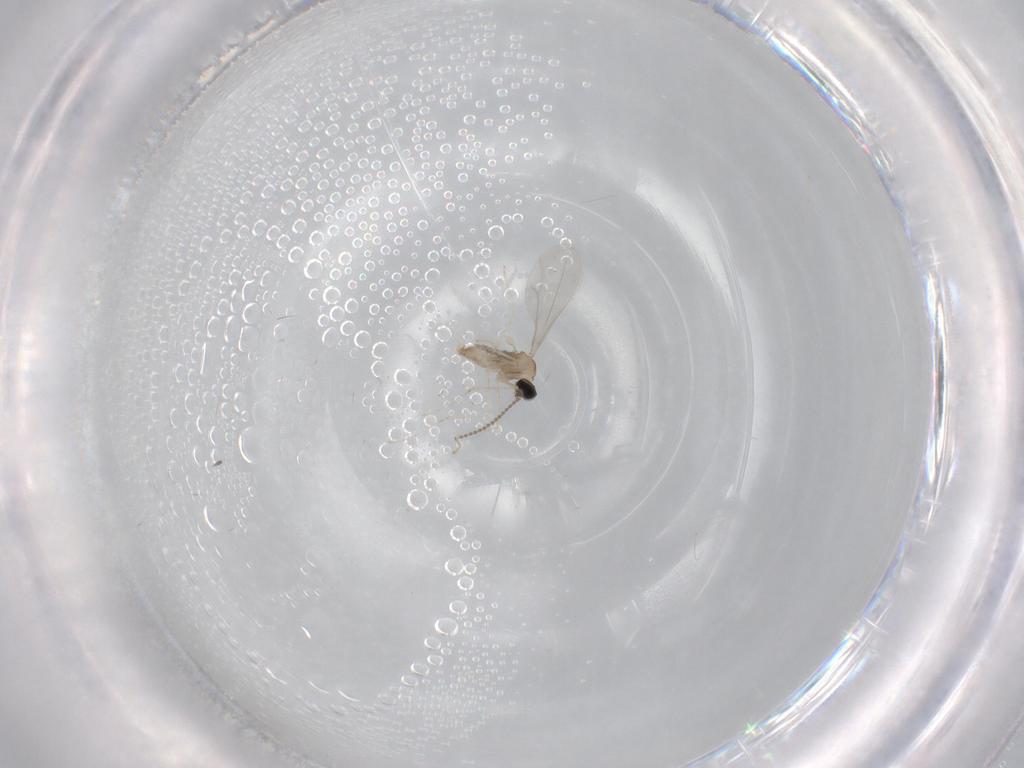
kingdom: Animalia
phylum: Arthropoda
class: Insecta
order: Diptera
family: Cecidomyiidae
